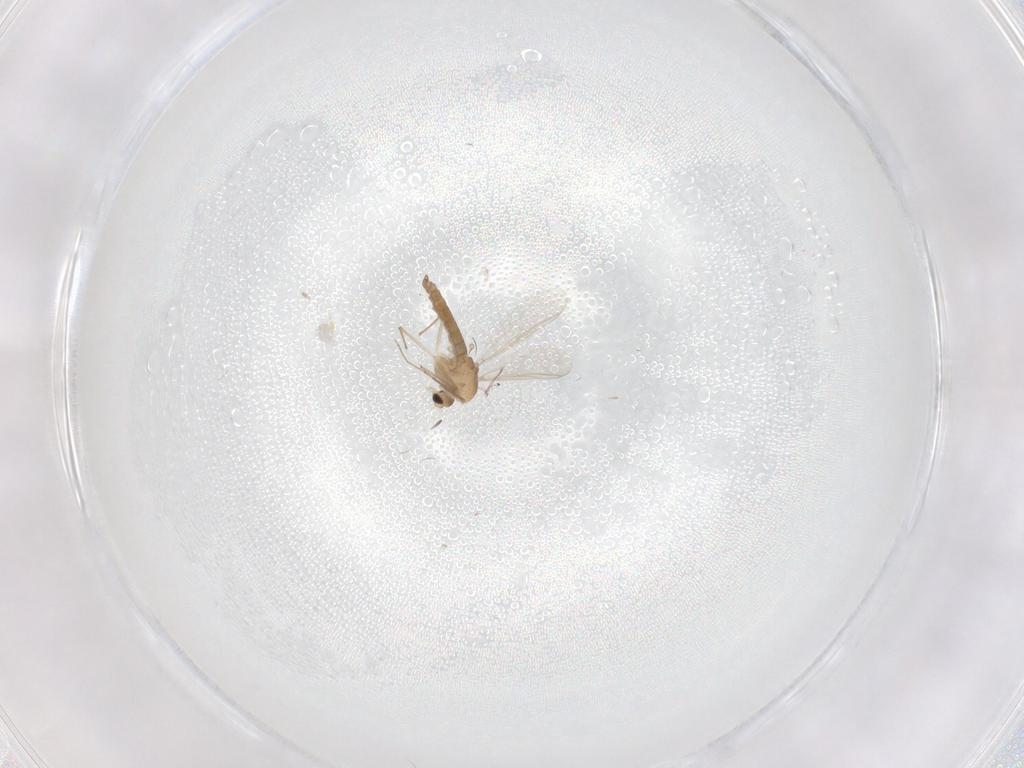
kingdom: Animalia
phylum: Arthropoda
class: Insecta
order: Diptera
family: Chironomidae
